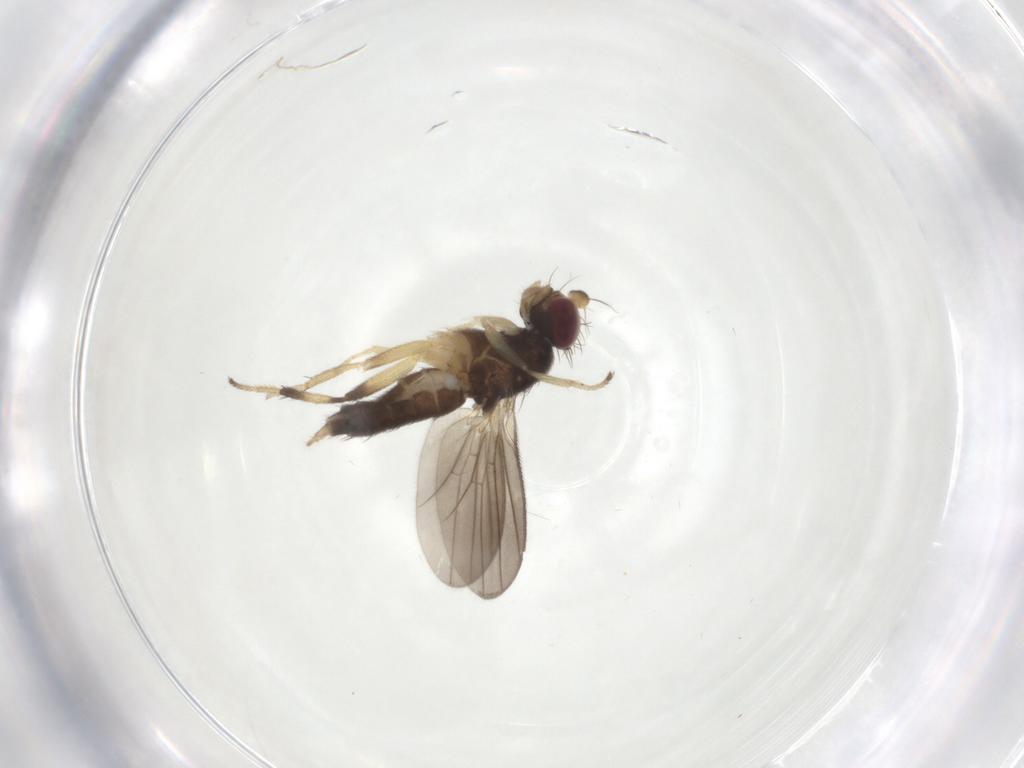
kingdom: Animalia
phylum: Arthropoda
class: Insecta
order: Diptera
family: Clusiidae
